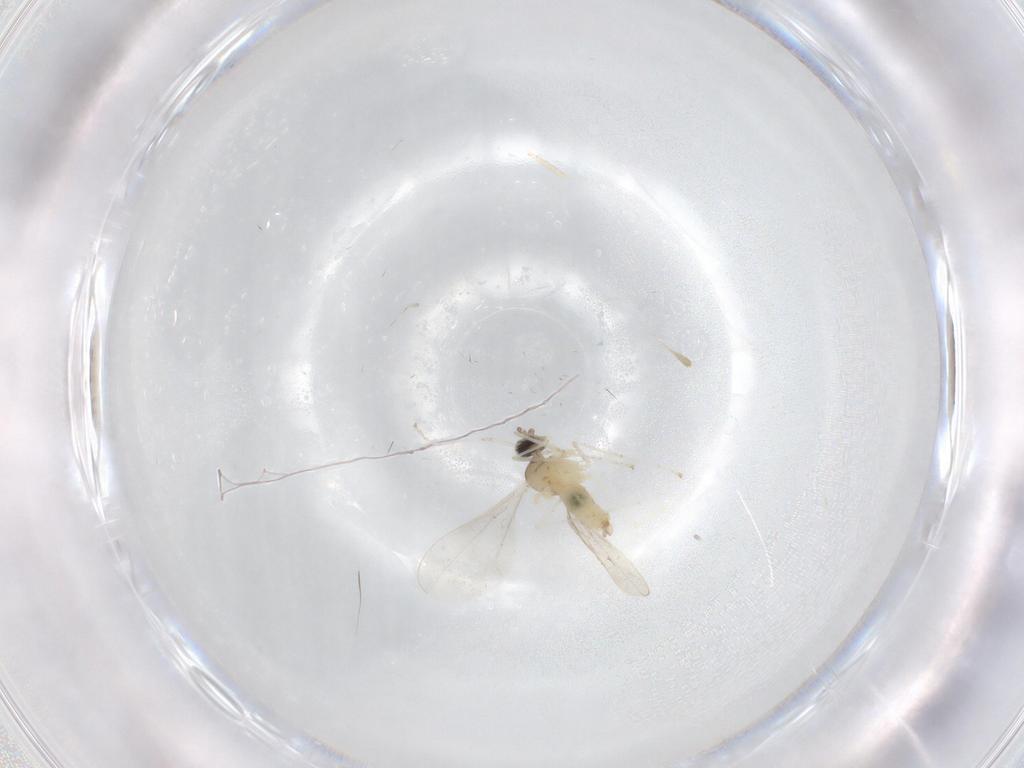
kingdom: Animalia
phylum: Arthropoda
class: Insecta
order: Diptera
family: Cecidomyiidae
